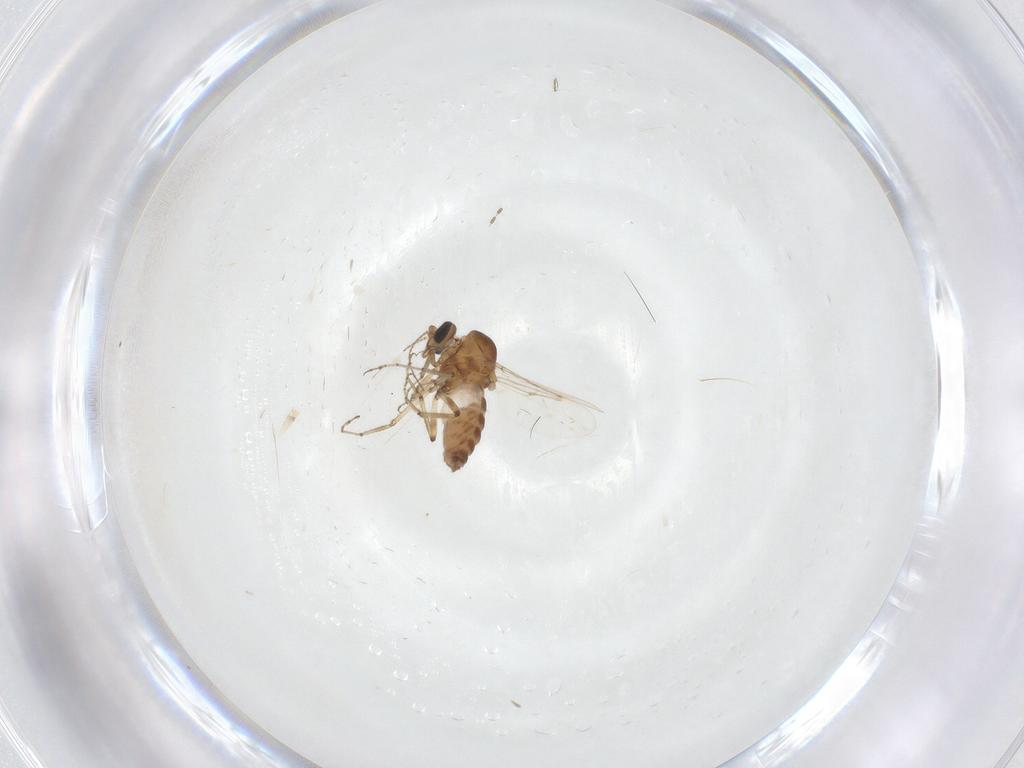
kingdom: Animalia
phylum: Arthropoda
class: Insecta
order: Diptera
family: Ceratopogonidae
